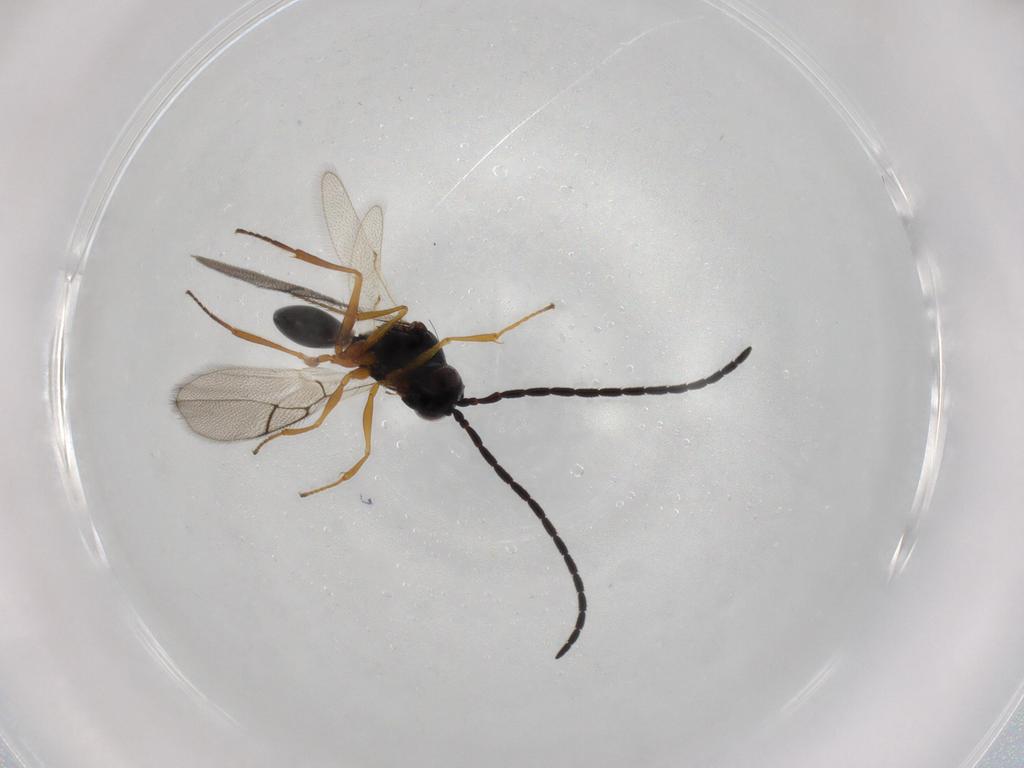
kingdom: Animalia
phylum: Arthropoda
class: Insecta
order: Hymenoptera
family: Figitidae
